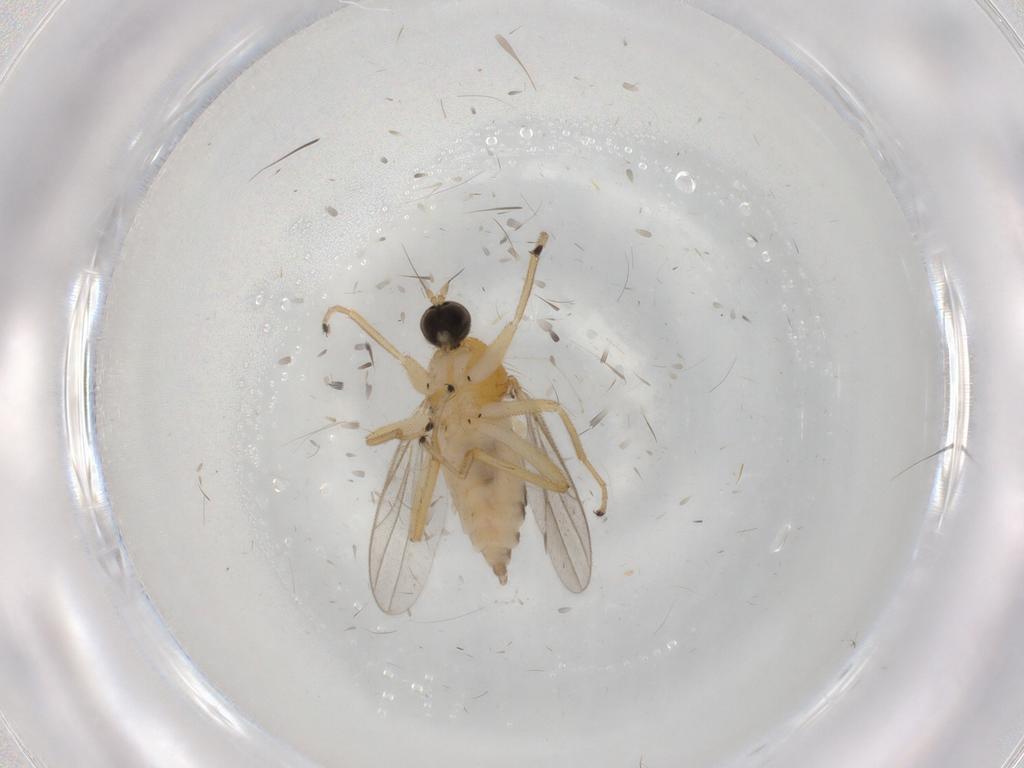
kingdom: Animalia
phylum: Arthropoda
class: Insecta
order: Diptera
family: Hybotidae
